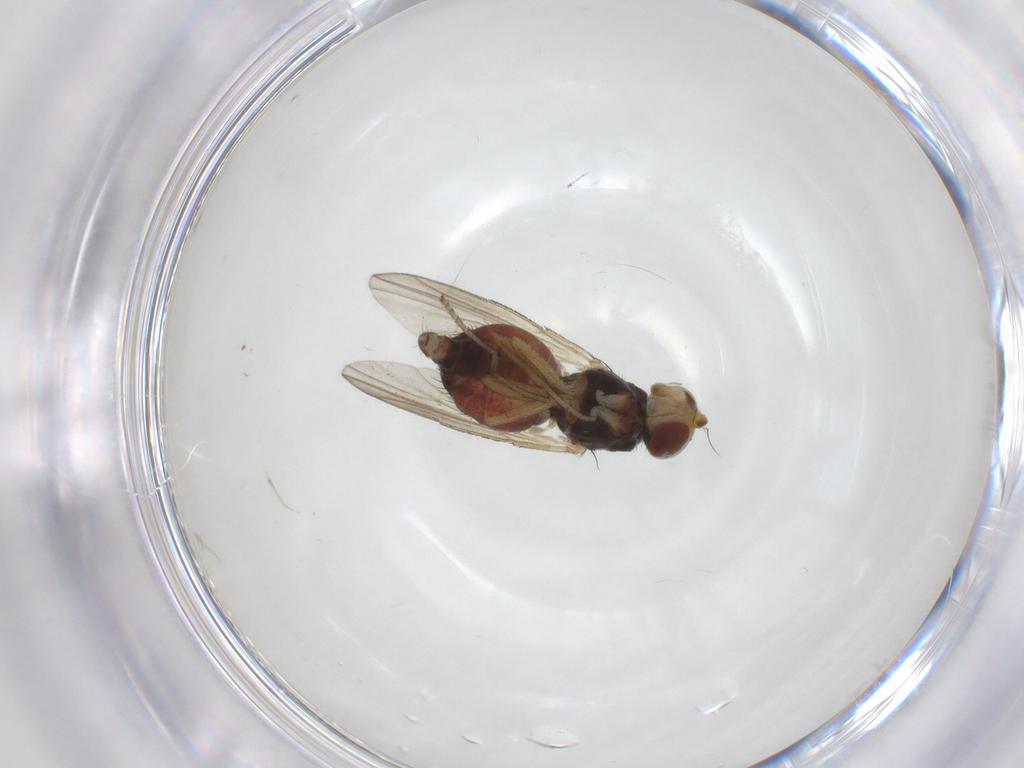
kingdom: Animalia
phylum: Arthropoda
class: Insecta
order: Diptera
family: Heleomyzidae
